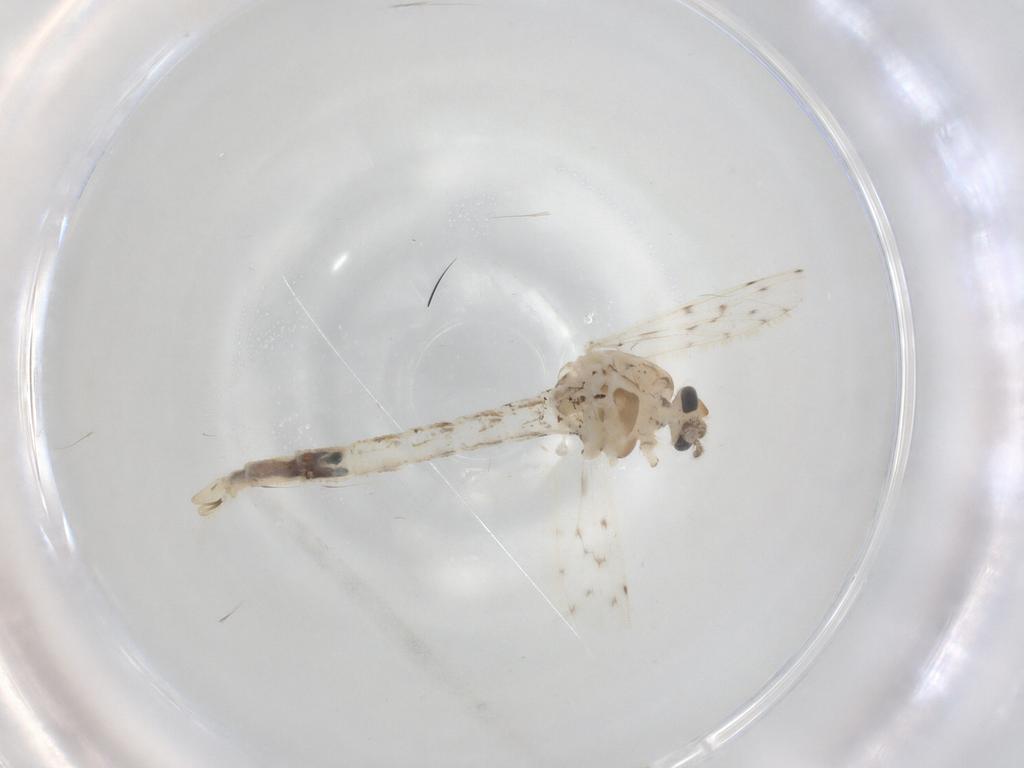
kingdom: Animalia
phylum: Arthropoda
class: Insecta
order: Diptera
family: Chaoboridae
